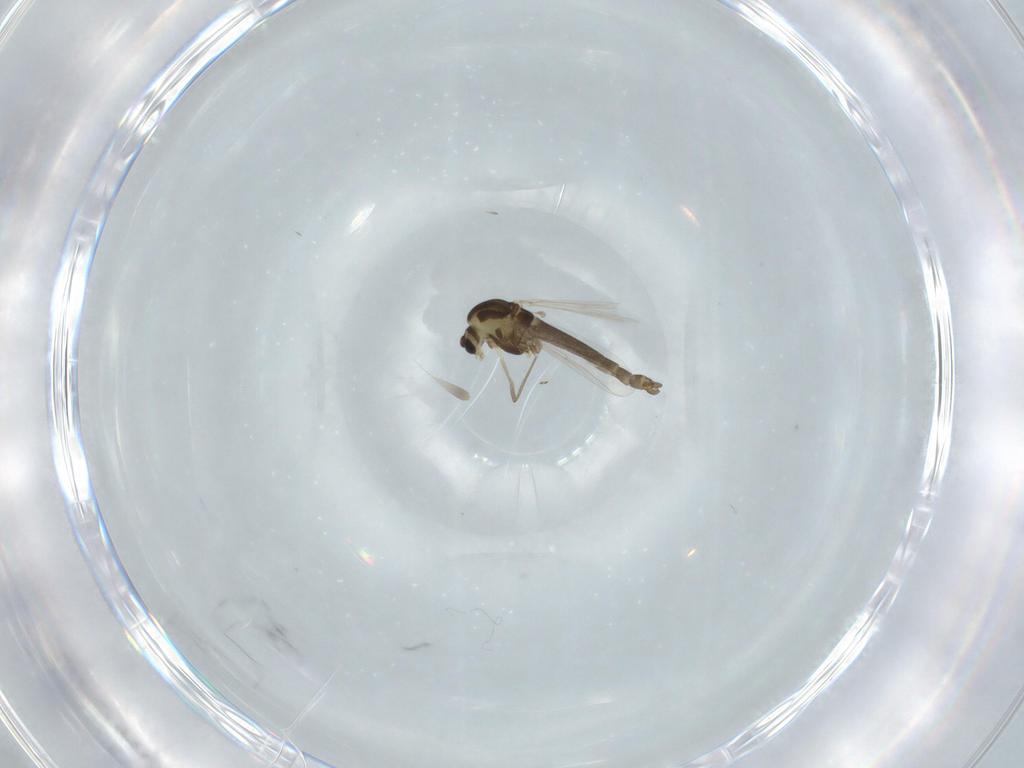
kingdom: Animalia
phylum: Arthropoda
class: Insecta
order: Diptera
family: Chironomidae
